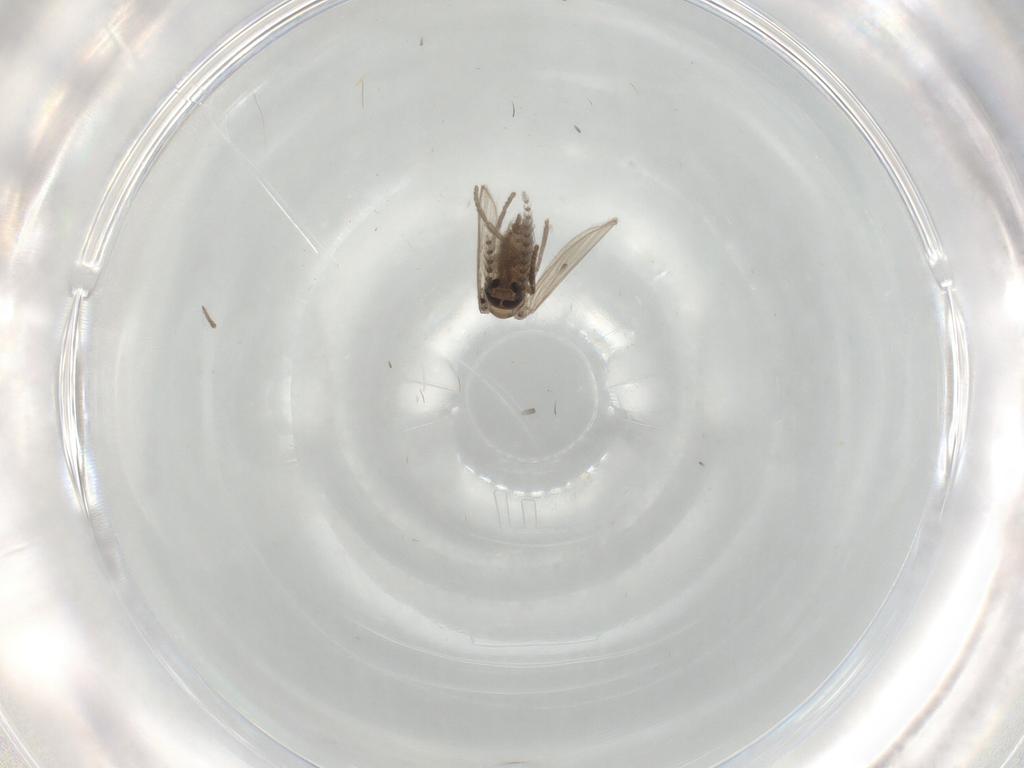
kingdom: Animalia
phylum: Arthropoda
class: Insecta
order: Diptera
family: Psychodidae
